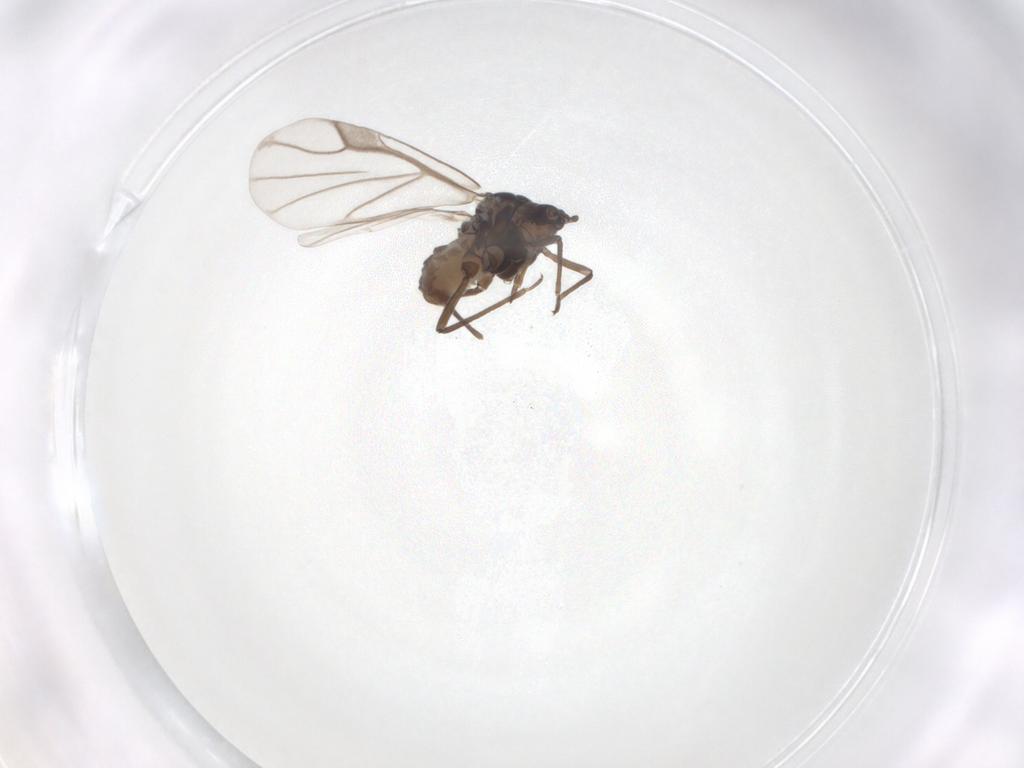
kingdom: Animalia
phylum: Arthropoda
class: Insecta
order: Hemiptera
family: Aphididae
